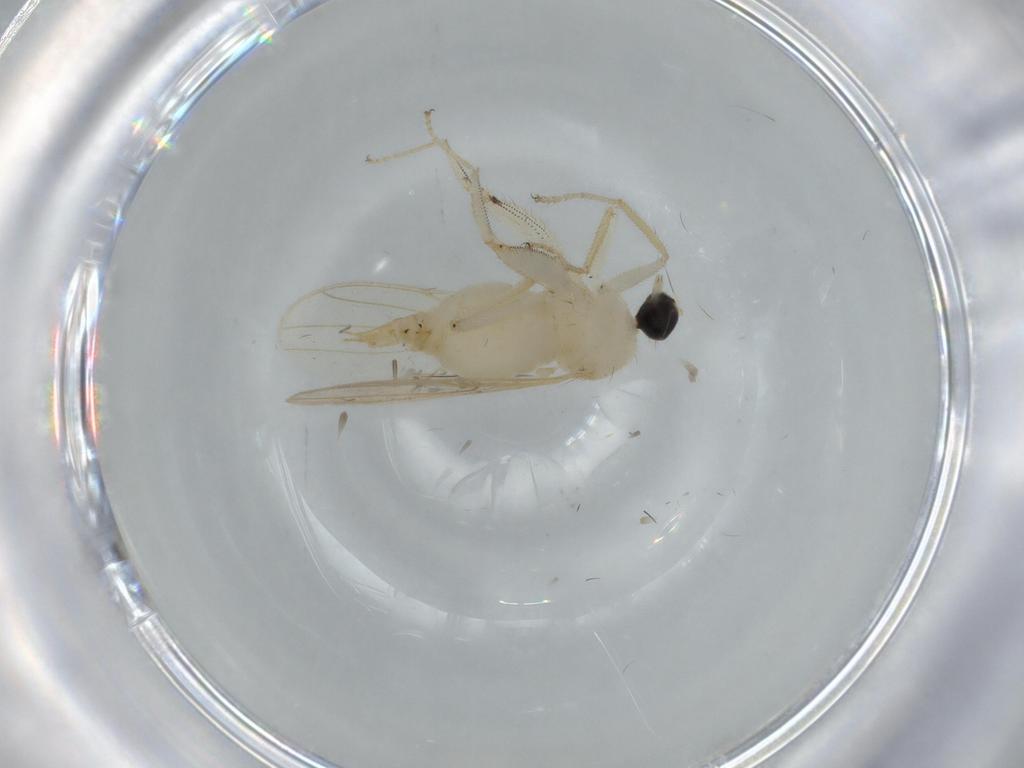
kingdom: Animalia
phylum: Arthropoda
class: Insecta
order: Diptera
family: Hybotidae
